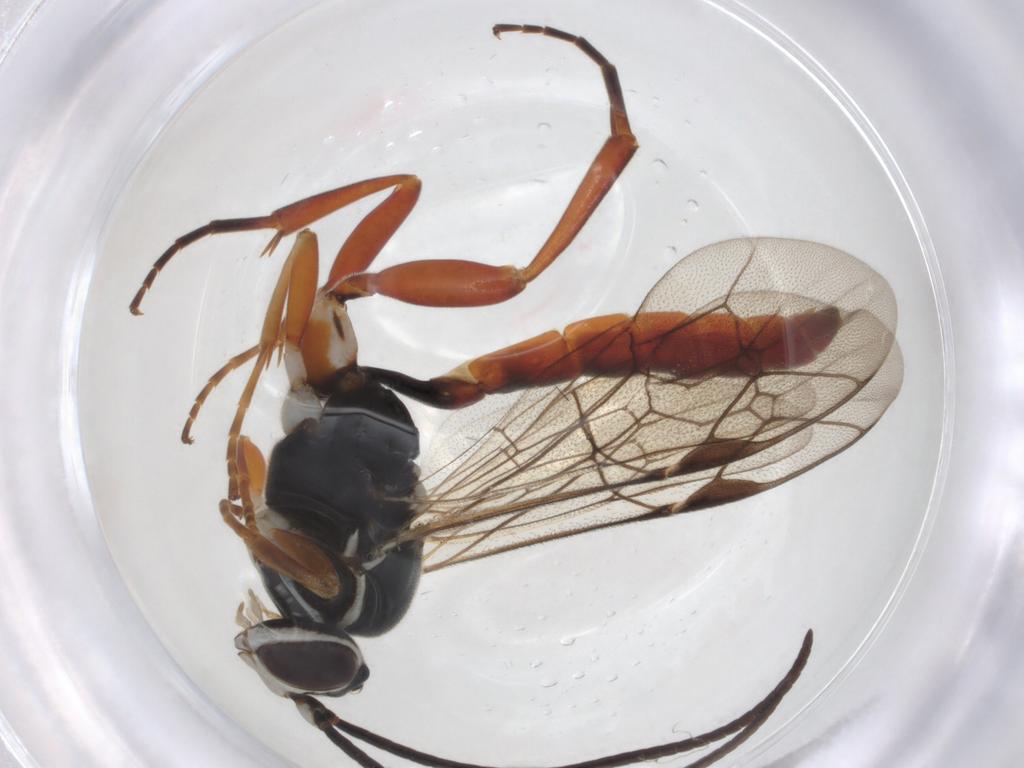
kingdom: Animalia
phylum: Arthropoda
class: Insecta
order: Hymenoptera
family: Ichneumonidae
